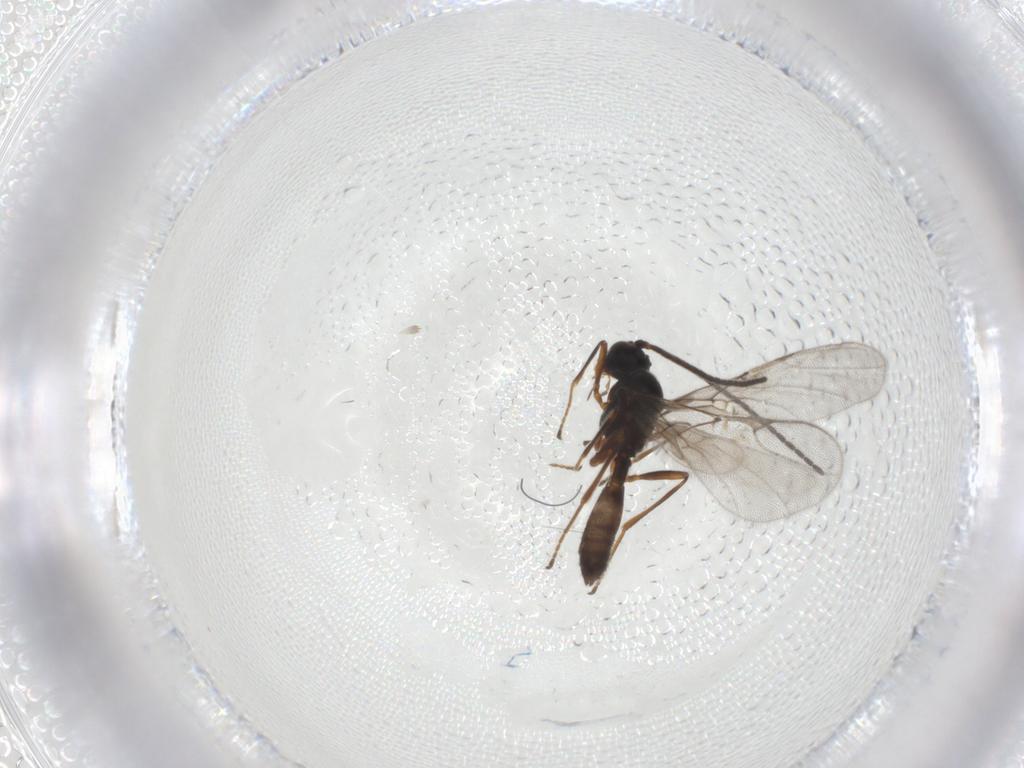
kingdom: Animalia
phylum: Arthropoda
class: Insecta
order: Hymenoptera
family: Braconidae
